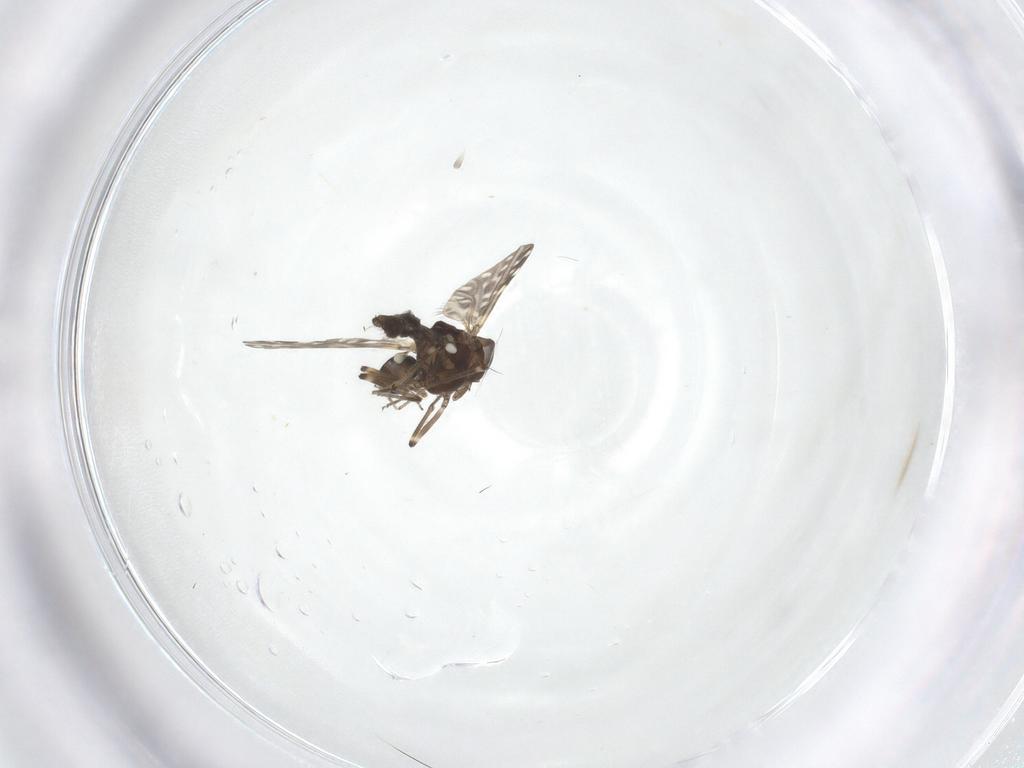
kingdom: Animalia
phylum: Arthropoda
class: Insecta
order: Diptera
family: Ceratopogonidae
